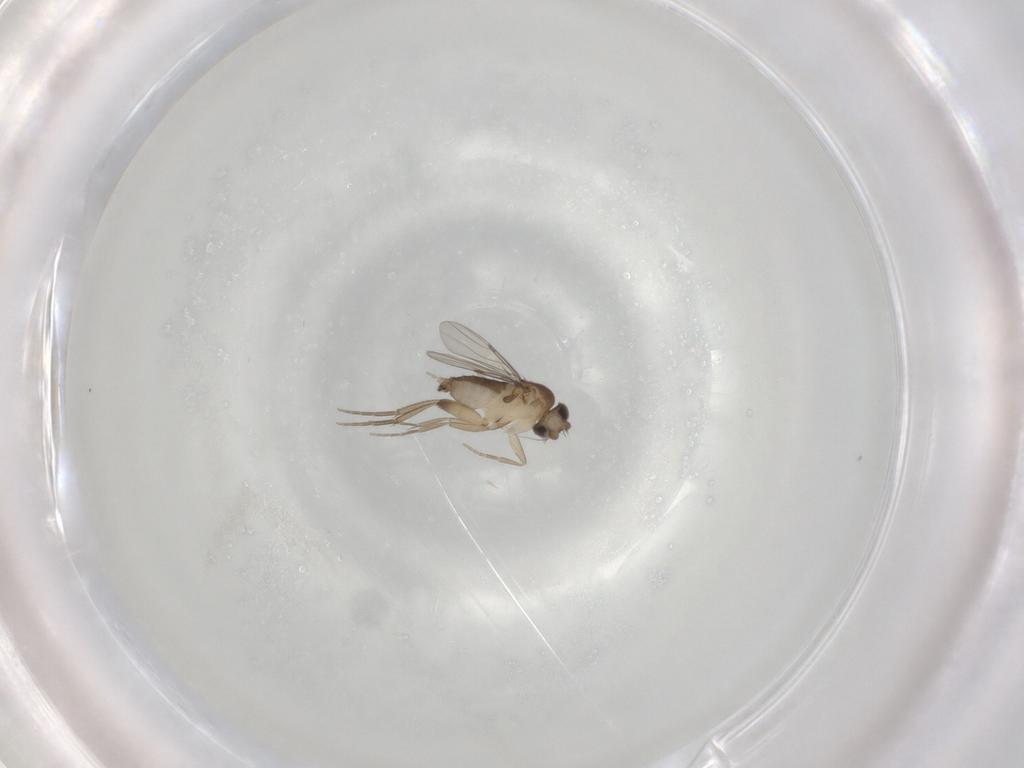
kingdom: Animalia
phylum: Arthropoda
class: Insecta
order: Diptera
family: Phoridae
